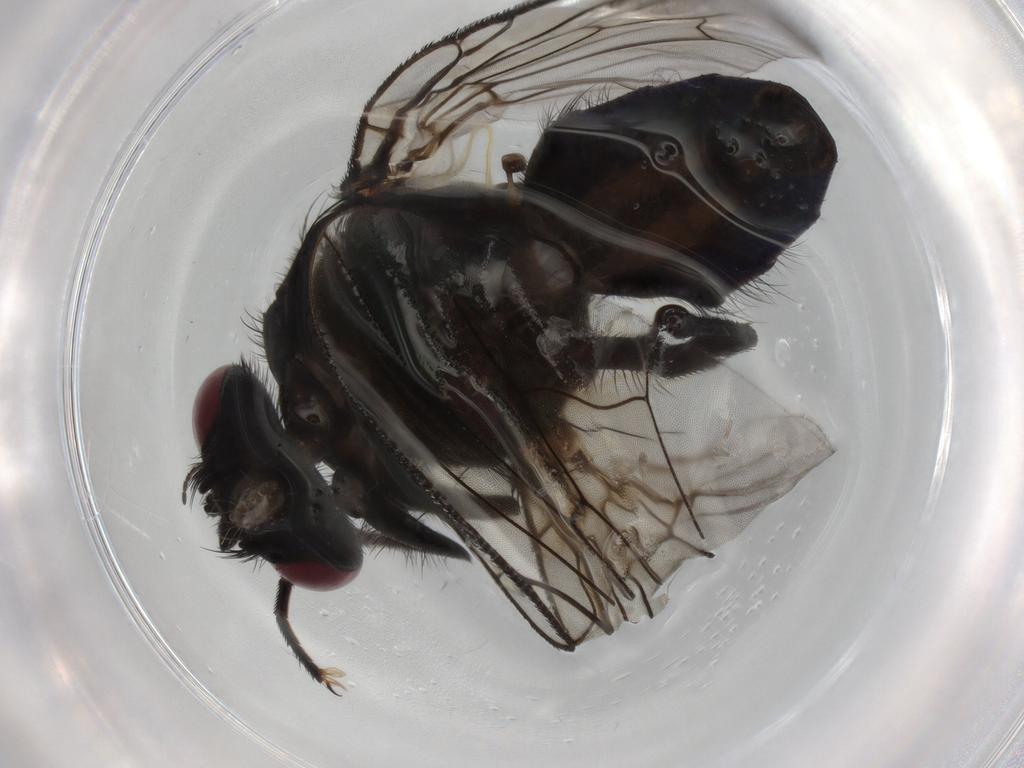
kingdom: Animalia
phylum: Arthropoda
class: Insecta
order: Diptera
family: Muscidae
